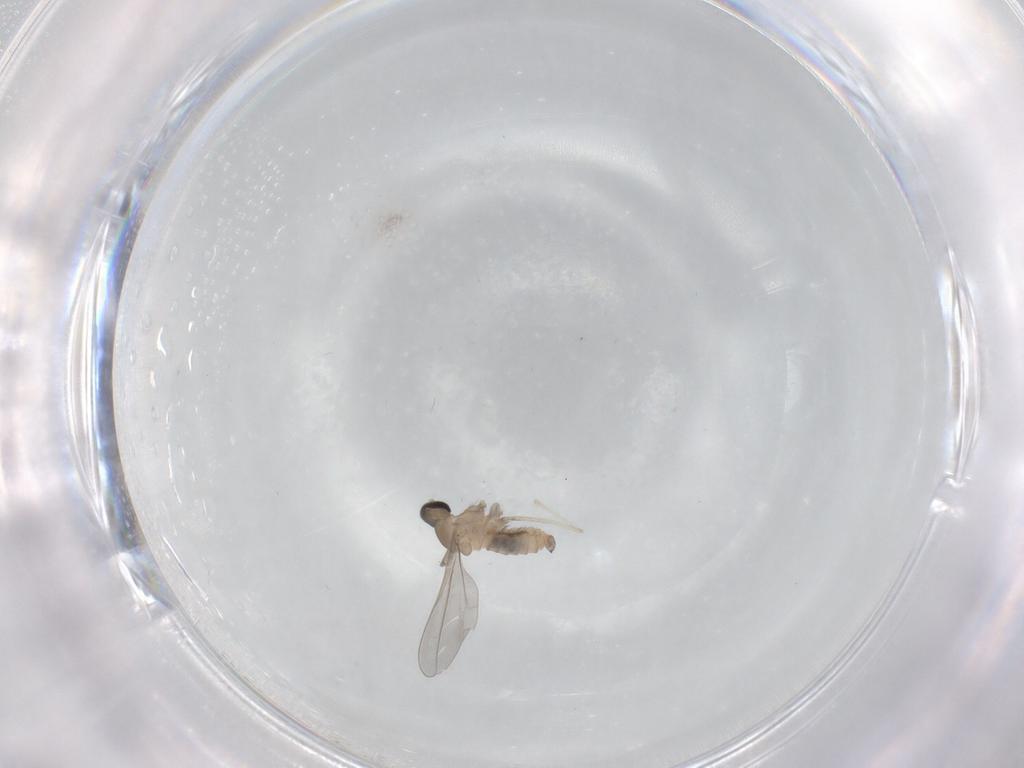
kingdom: Animalia
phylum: Arthropoda
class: Insecta
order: Diptera
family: Cecidomyiidae
